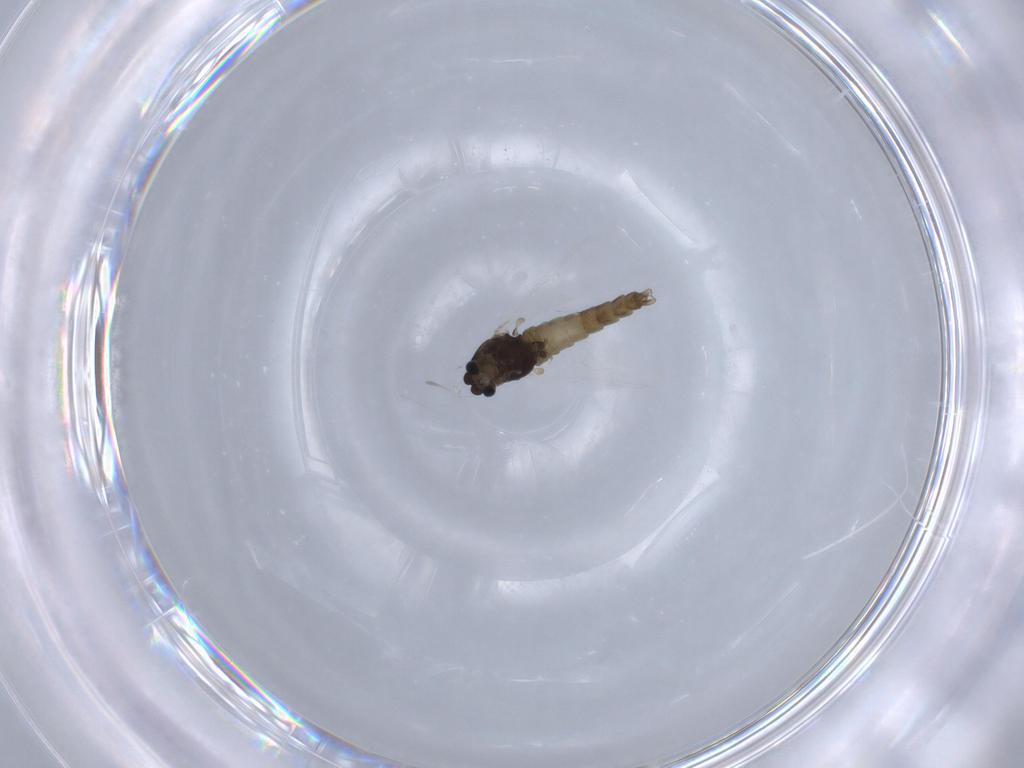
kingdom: Animalia
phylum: Arthropoda
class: Insecta
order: Diptera
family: Chironomidae
